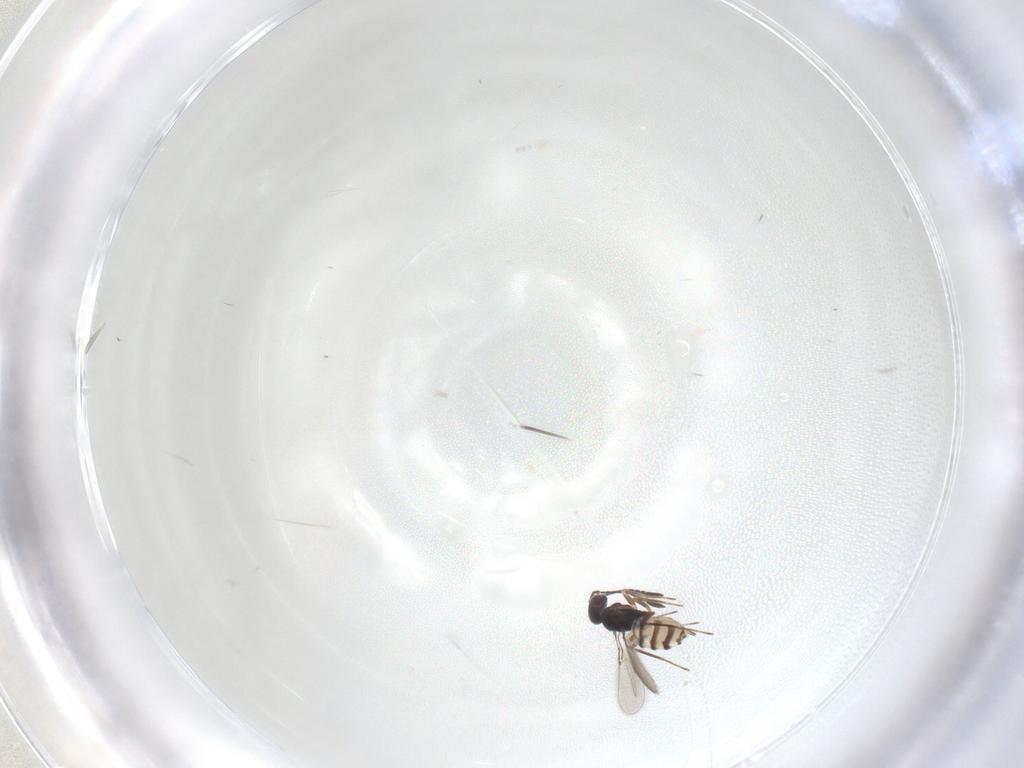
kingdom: Animalia
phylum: Arthropoda
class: Insecta
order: Hymenoptera
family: Mymaridae
